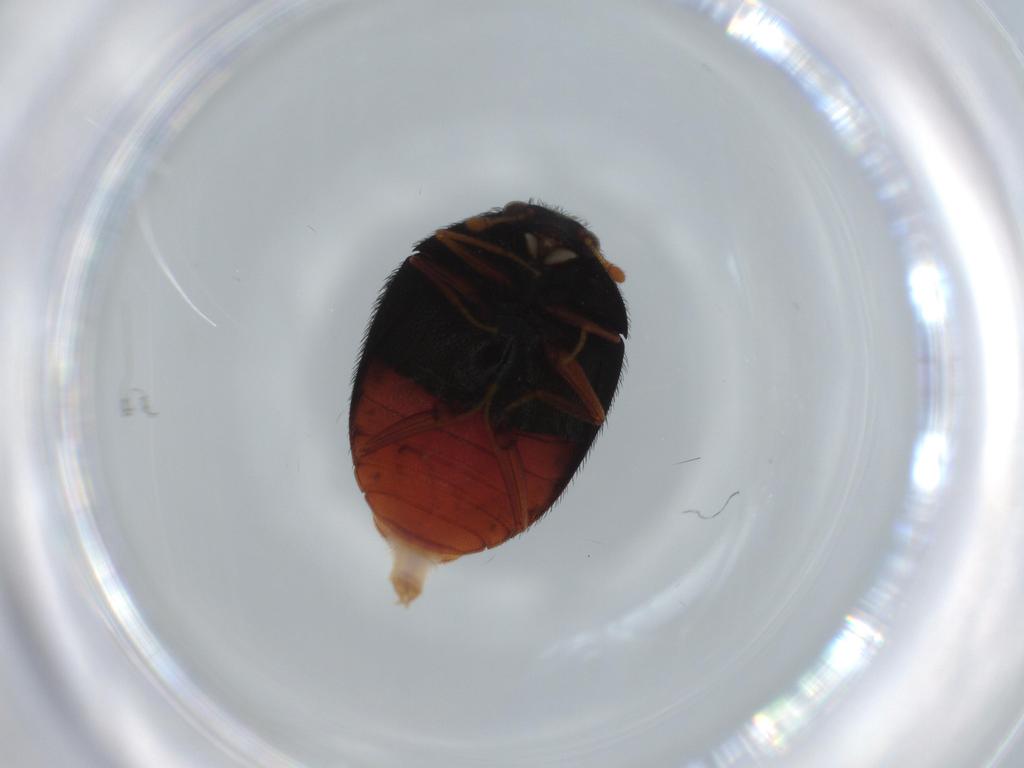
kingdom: Animalia
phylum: Arthropoda
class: Insecta
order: Coleoptera
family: Dermestidae
